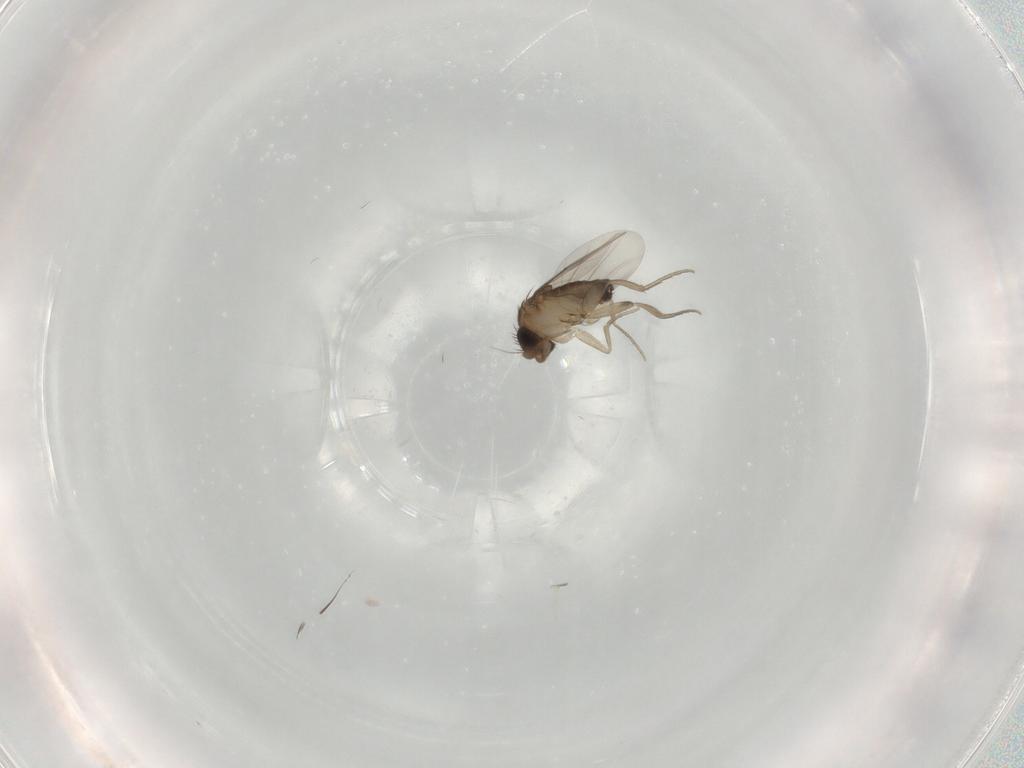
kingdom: Animalia
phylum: Arthropoda
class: Insecta
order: Diptera
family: Phoridae
